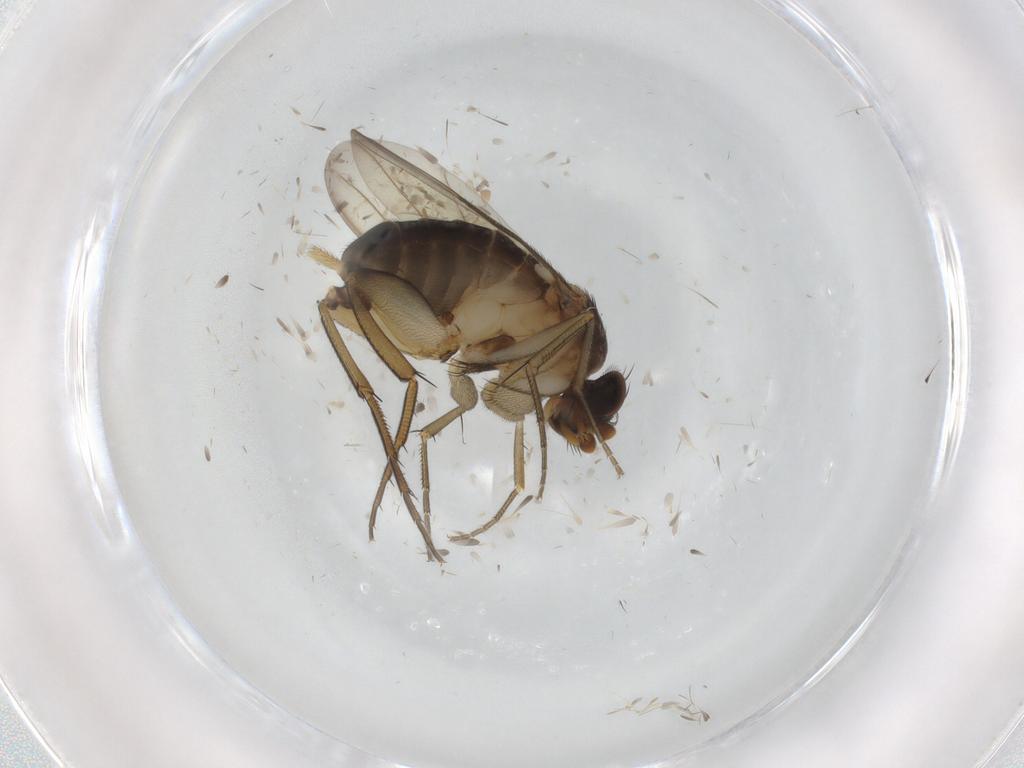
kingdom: Animalia
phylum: Arthropoda
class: Insecta
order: Diptera
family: Phoridae
